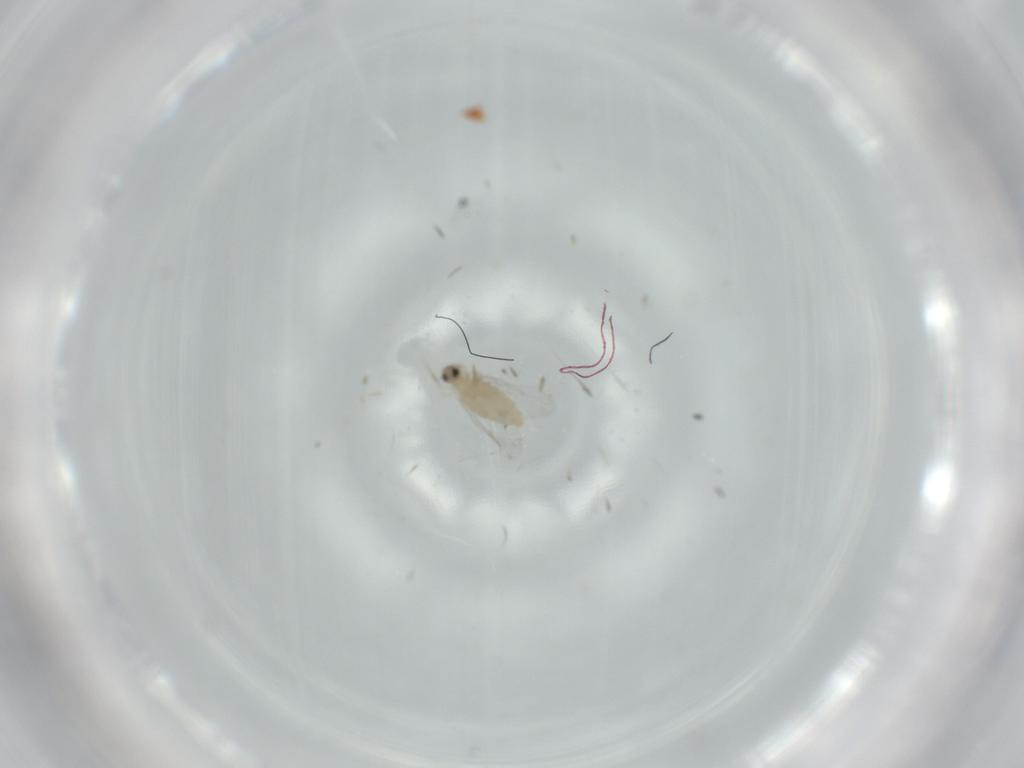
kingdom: Animalia
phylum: Arthropoda
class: Insecta
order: Diptera
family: Cecidomyiidae
